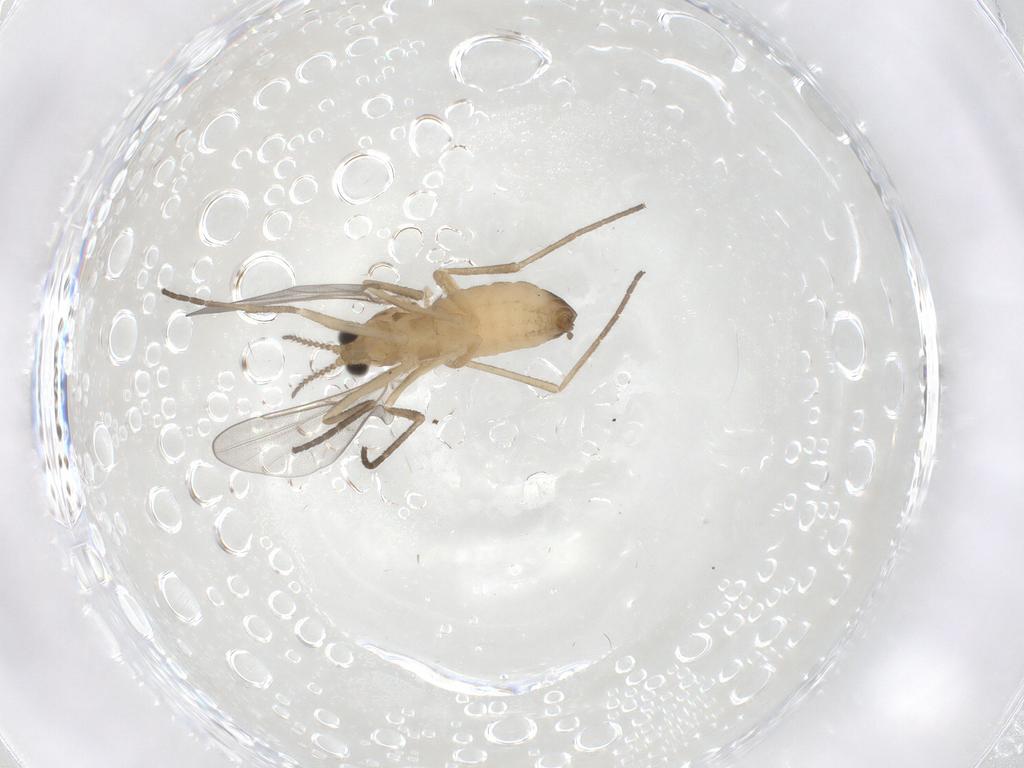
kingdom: Animalia
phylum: Arthropoda
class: Insecta
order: Diptera
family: Cecidomyiidae
